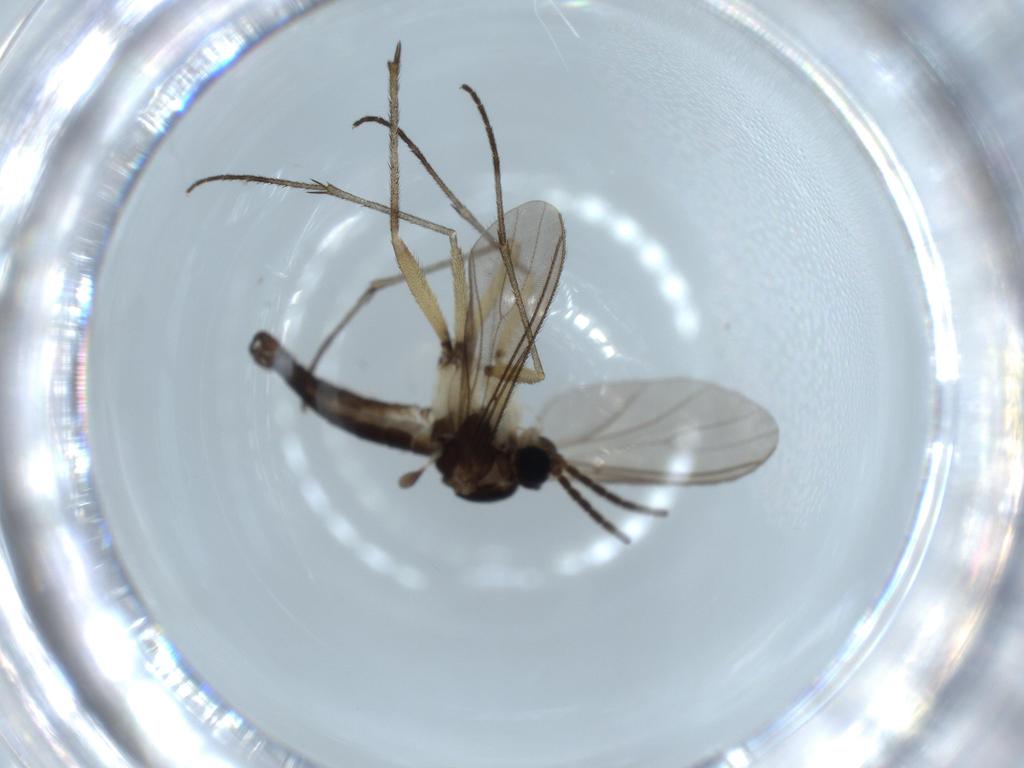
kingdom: Animalia
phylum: Arthropoda
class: Insecta
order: Diptera
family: Sciaridae
